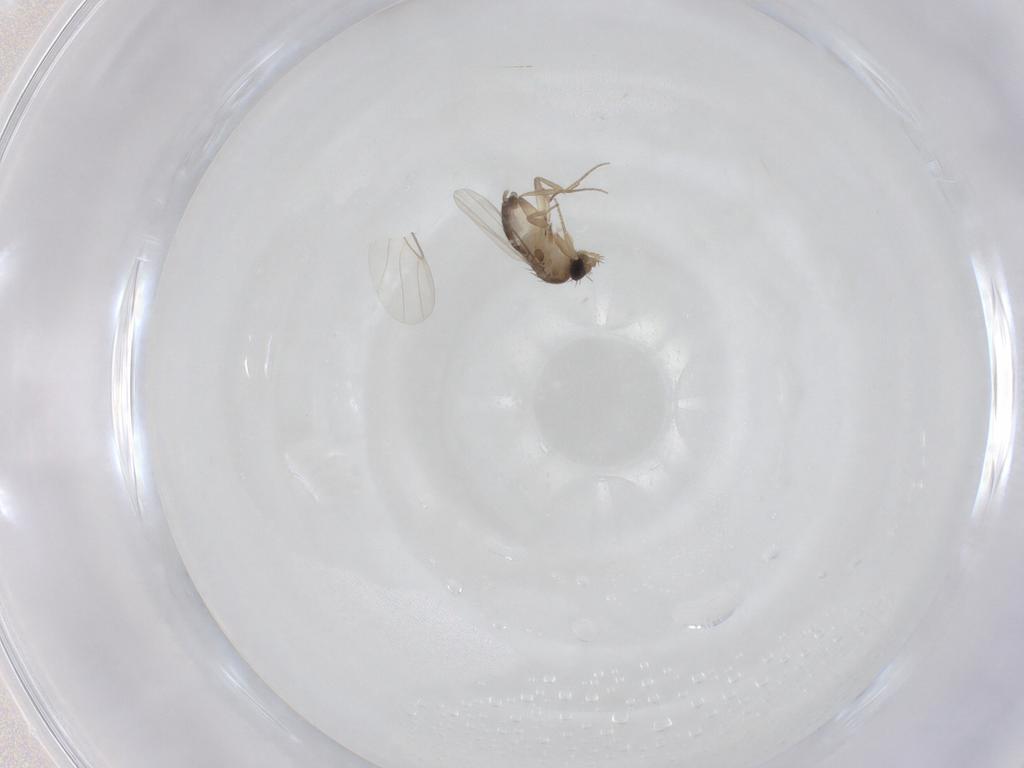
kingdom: Animalia
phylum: Arthropoda
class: Insecta
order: Diptera
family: Phoridae
